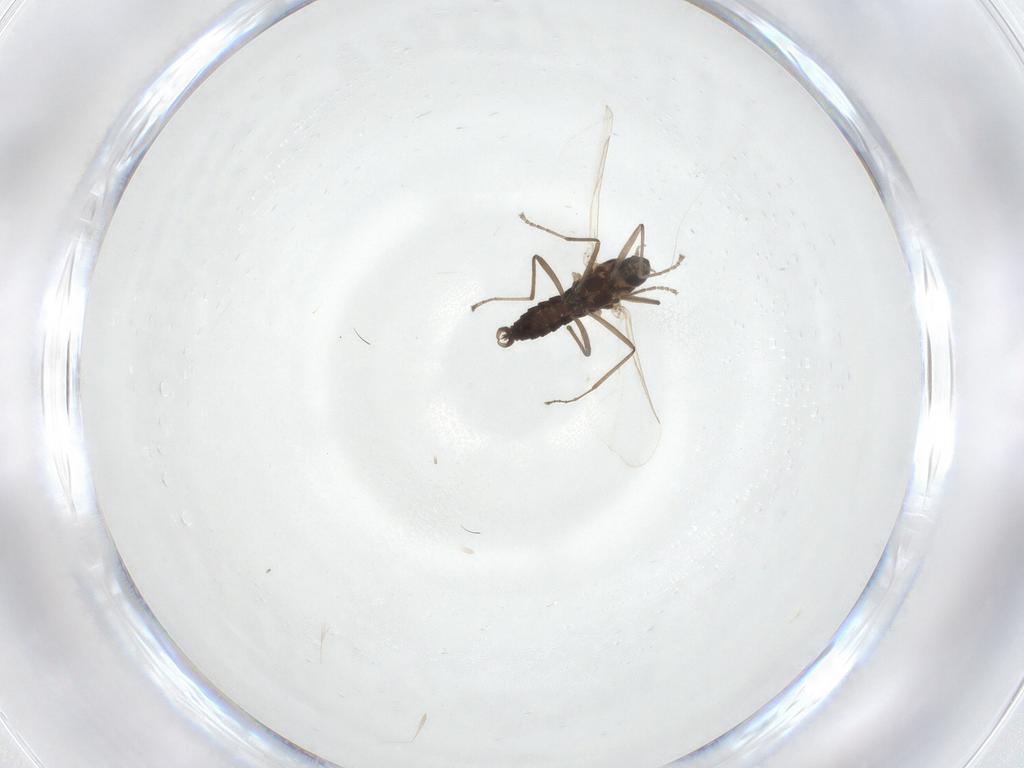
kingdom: Animalia
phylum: Arthropoda
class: Insecta
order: Diptera
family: Cecidomyiidae
